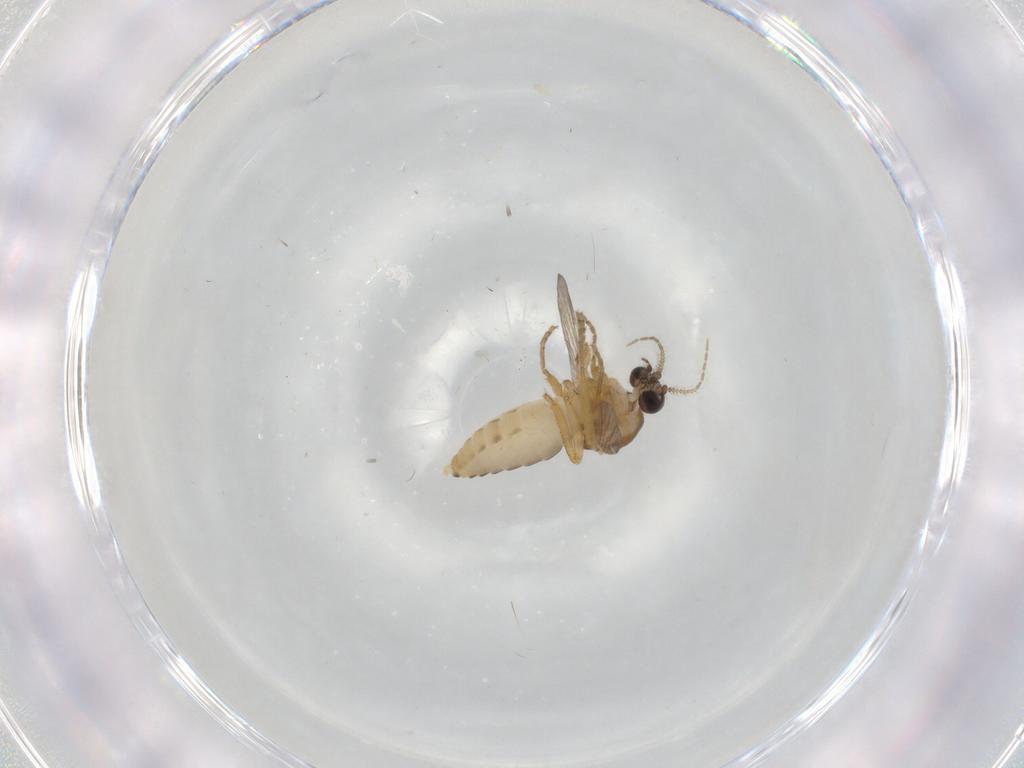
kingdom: Animalia
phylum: Arthropoda
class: Insecta
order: Diptera
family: Ceratopogonidae
